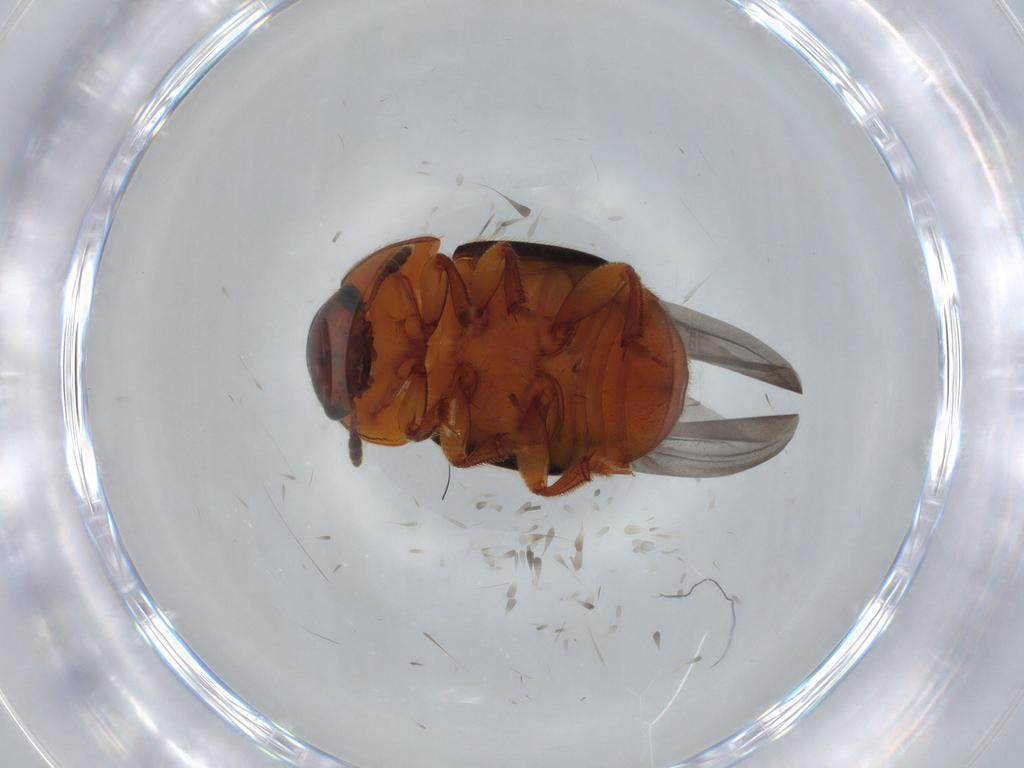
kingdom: Animalia
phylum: Arthropoda
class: Insecta
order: Coleoptera
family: Nitidulidae
